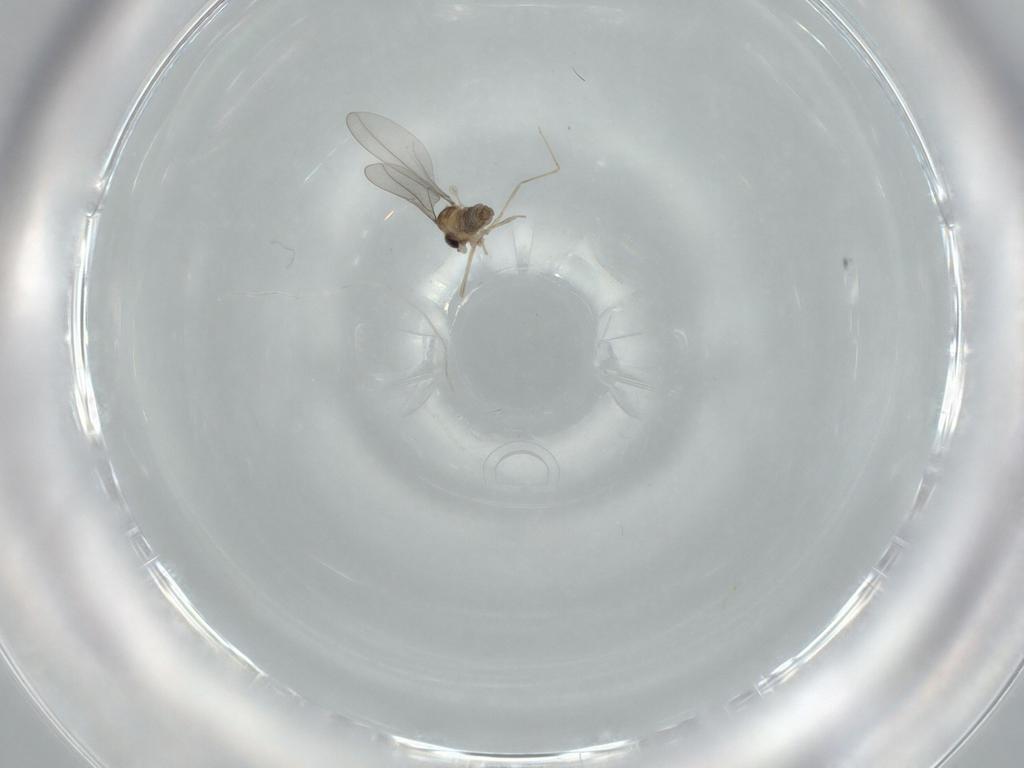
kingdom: Animalia
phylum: Arthropoda
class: Insecta
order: Diptera
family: Cecidomyiidae
